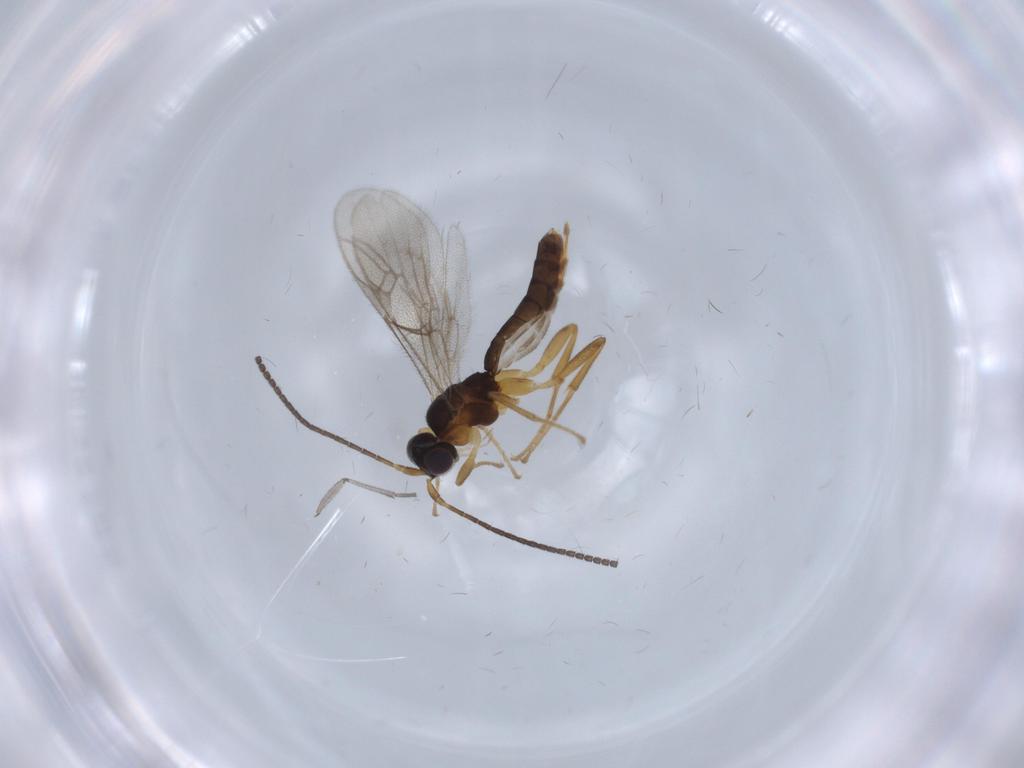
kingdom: Animalia
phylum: Arthropoda
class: Insecta
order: Hymenoptera
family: Ichneumonidae
